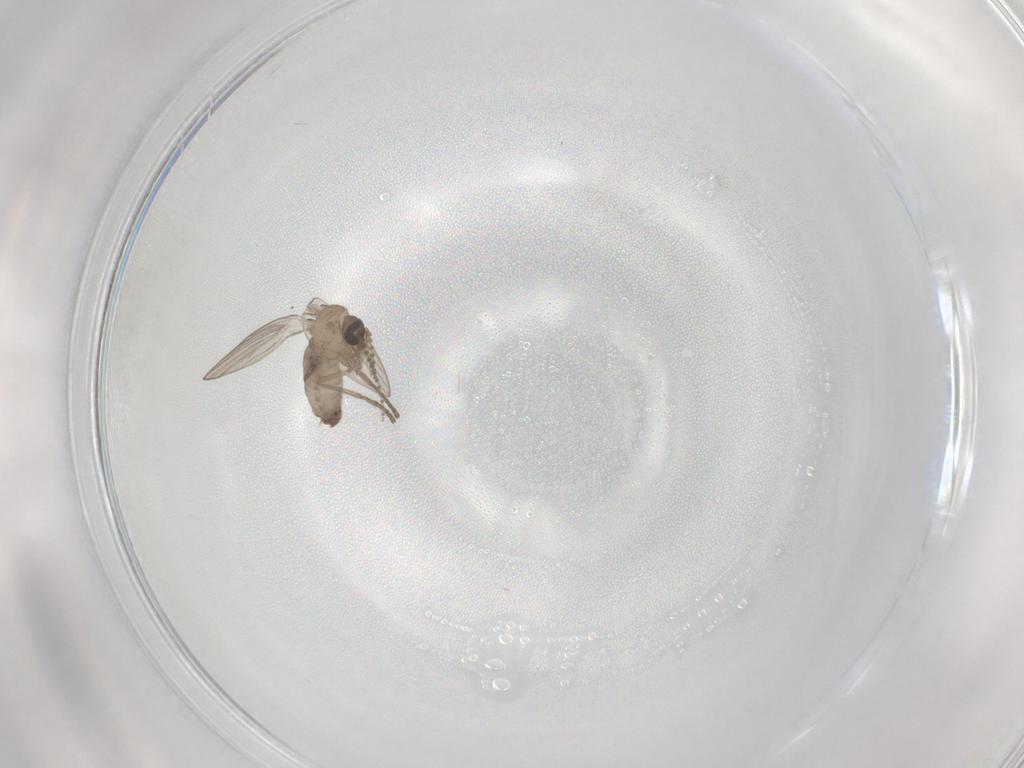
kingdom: Animalia
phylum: Arthropoda
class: Insecta
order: Diptera
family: Psychodidae
